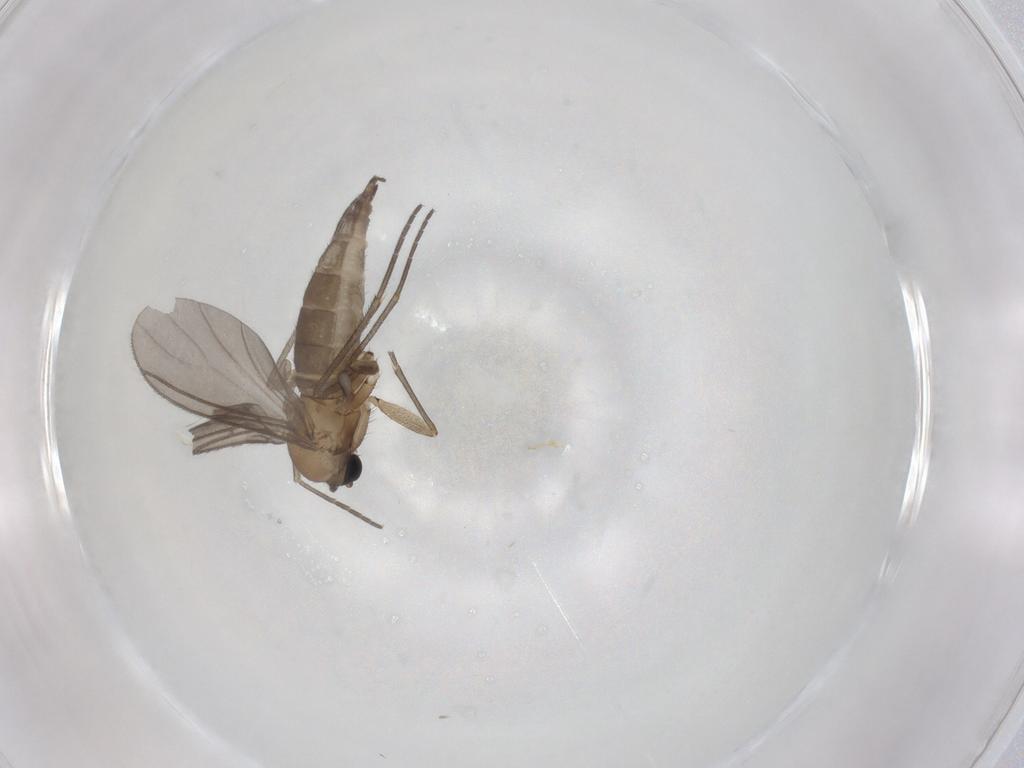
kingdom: Animalia
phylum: Arthropoda
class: Insecta
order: Diptera
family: Sciaridae
